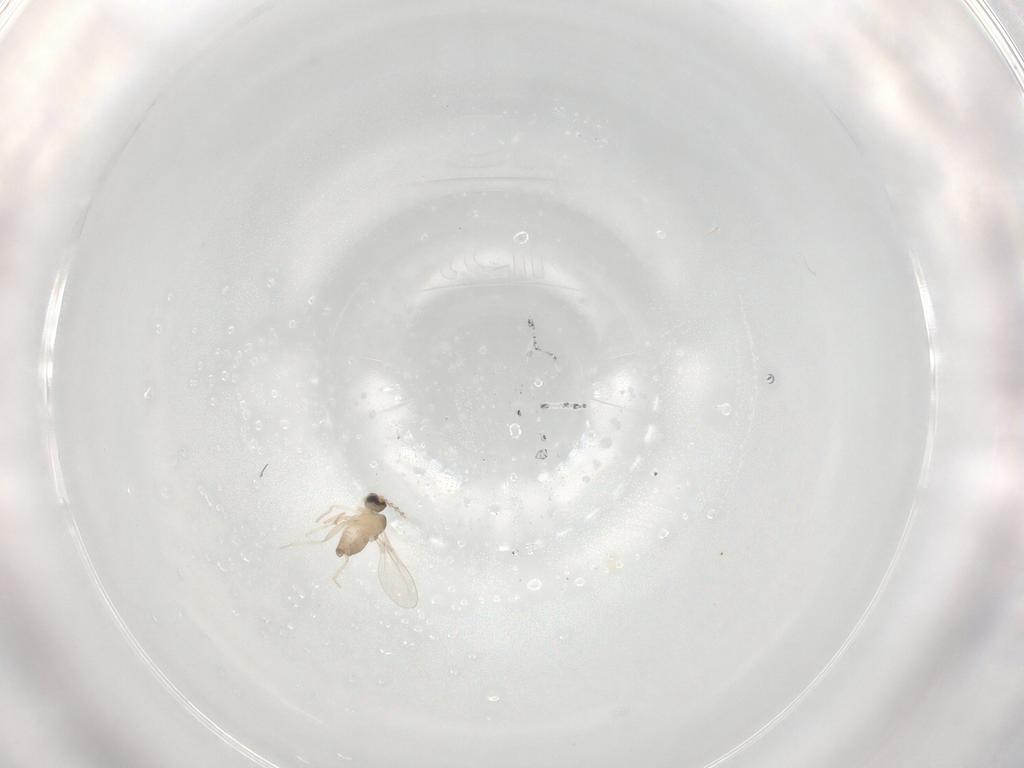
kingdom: Animalia
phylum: Arthropoda
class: Insecta
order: Diptera
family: Cecidomyiidae
